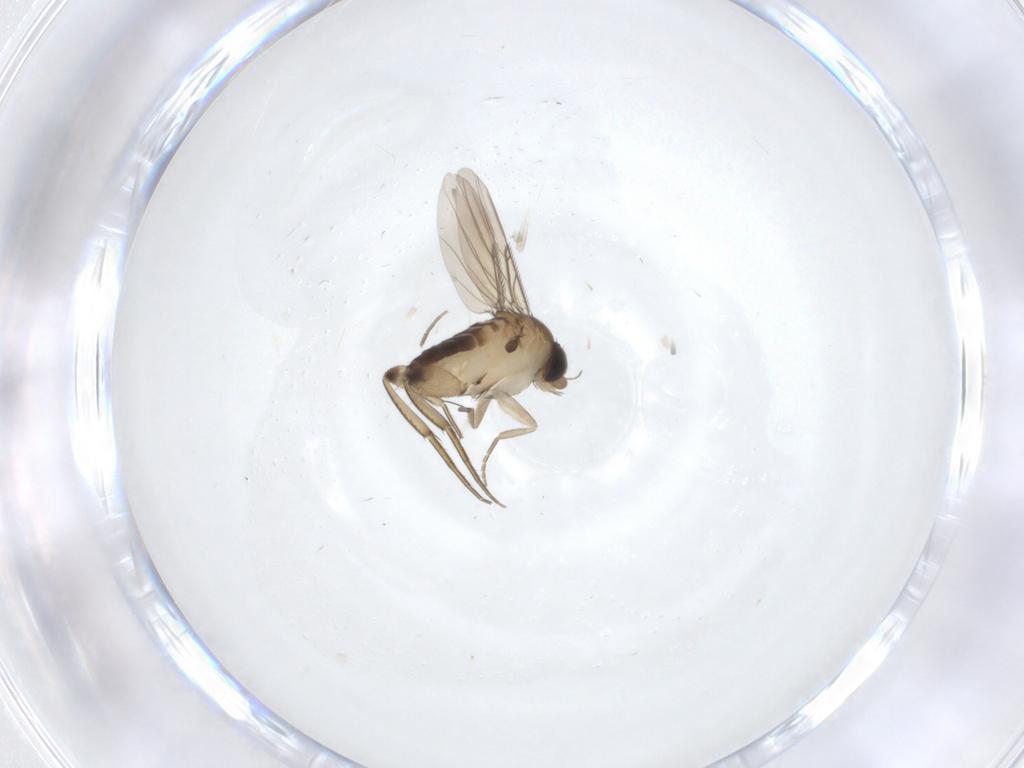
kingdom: Animalia
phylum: Arthropoda
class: Insecta
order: Diptera
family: Phoridae
